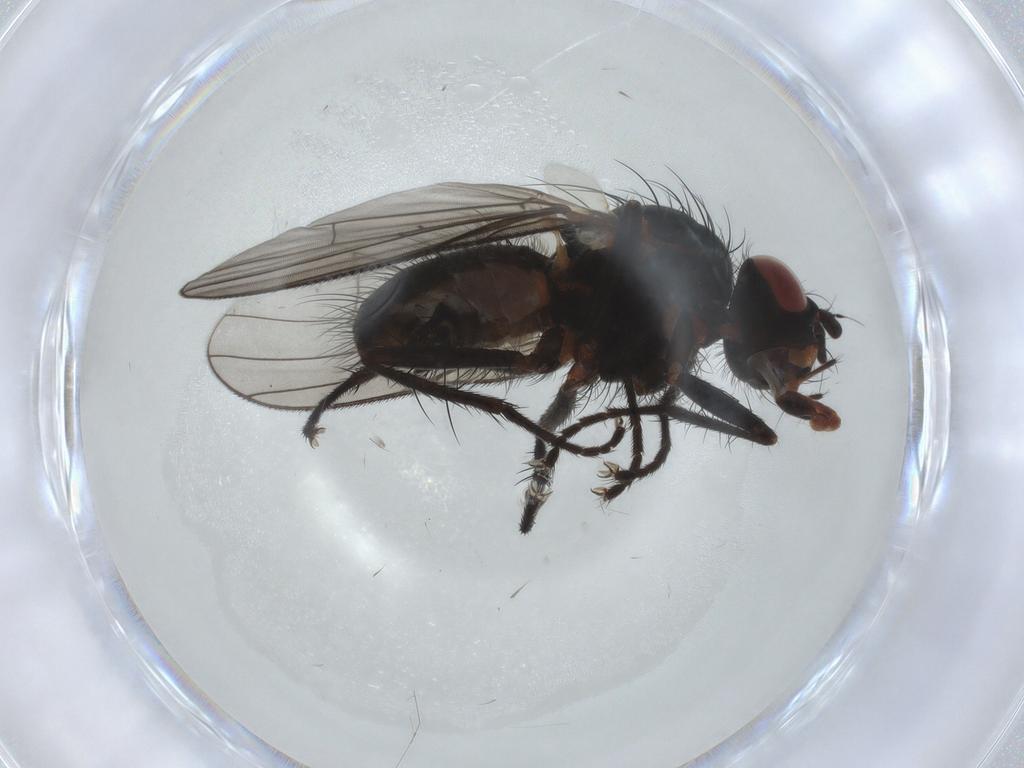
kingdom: Animalia
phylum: Arthropoda
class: Insecta
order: Diptera
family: Anthomyiidae
